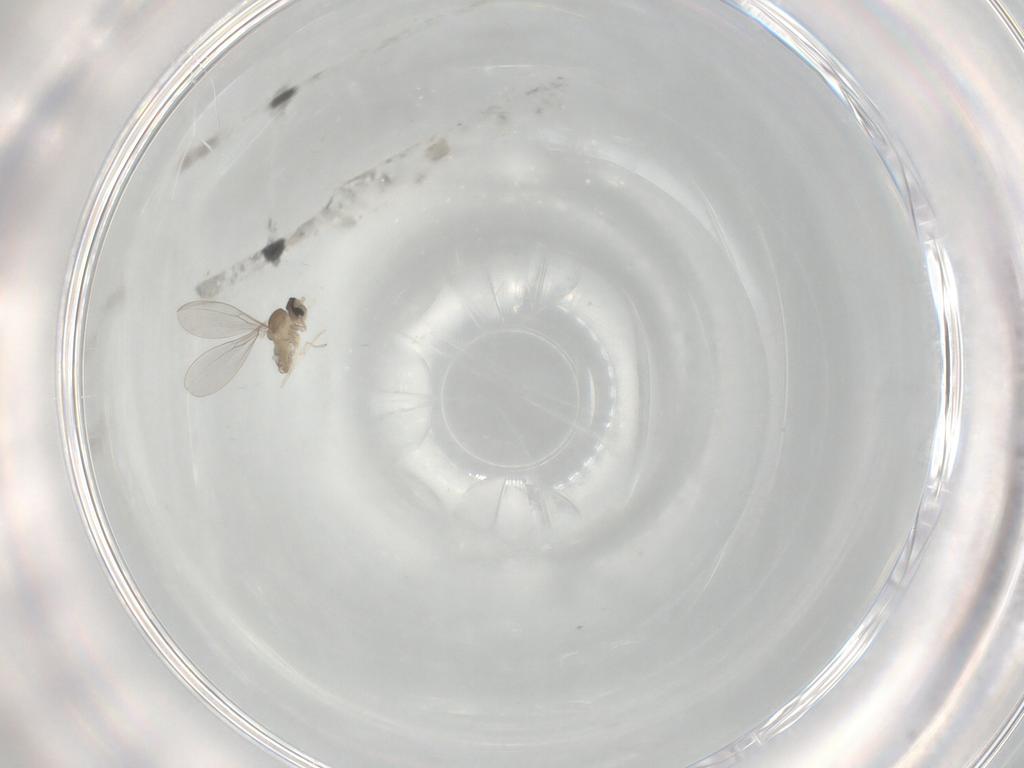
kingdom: Animalia
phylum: Arthropoda
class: Insecta
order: Diptera
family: Cecidomyiidae
